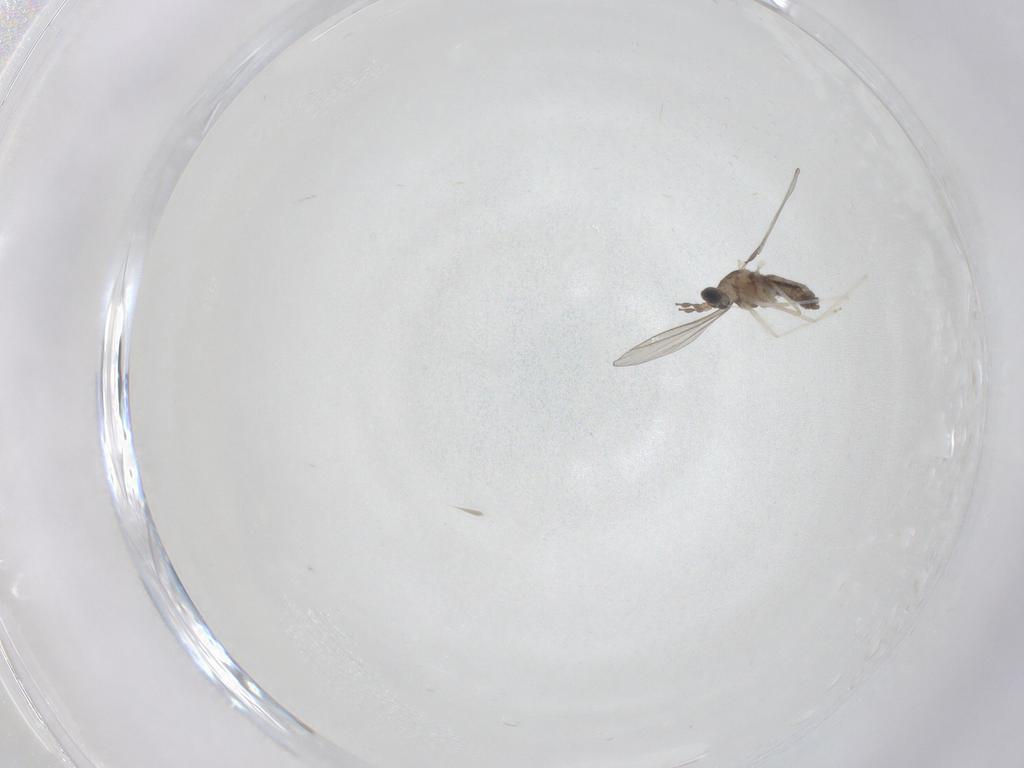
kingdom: Animalia
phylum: Arthropoda
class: Insecta
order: Diptera
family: Cecidomyiidae
